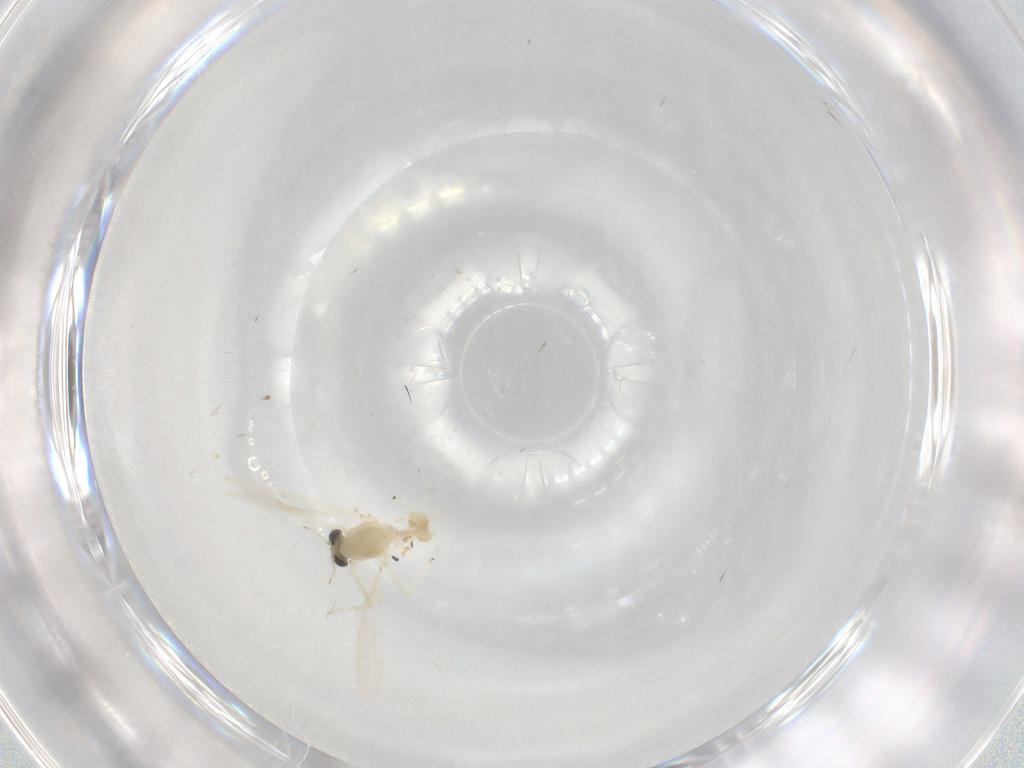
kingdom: Animalia
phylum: Arthropoda
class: Insecta
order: Diptera
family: Chironomidae
